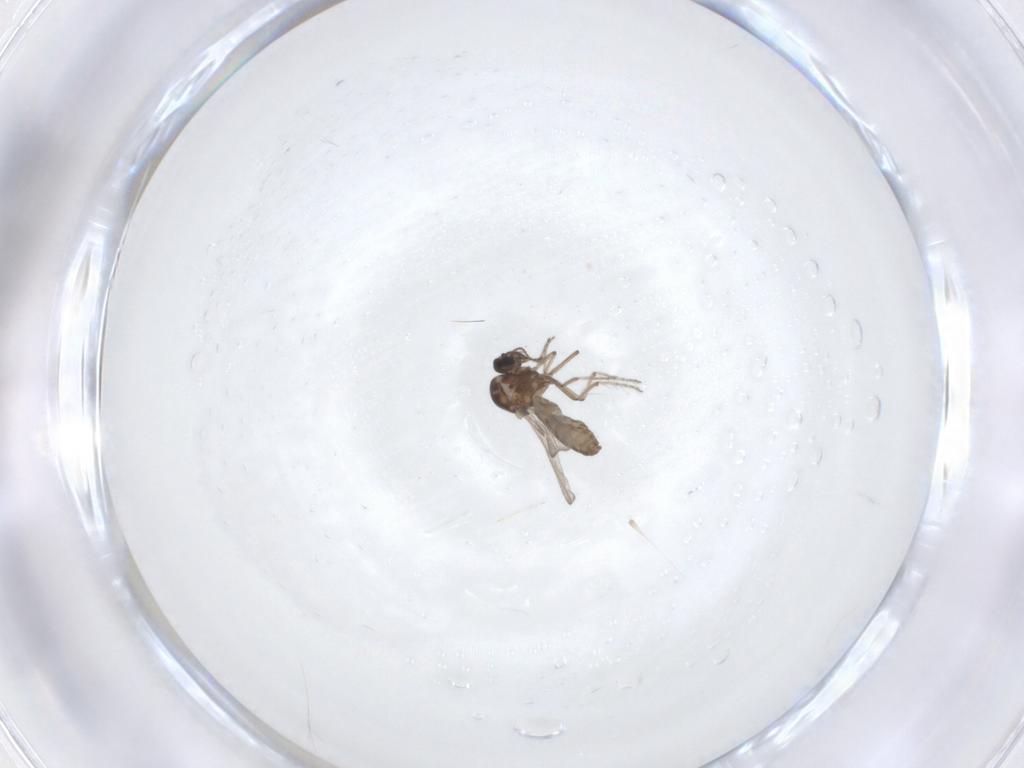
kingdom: Animalia
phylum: Arthropoda
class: Insecta
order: Diptera
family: Ceratopogonidae
